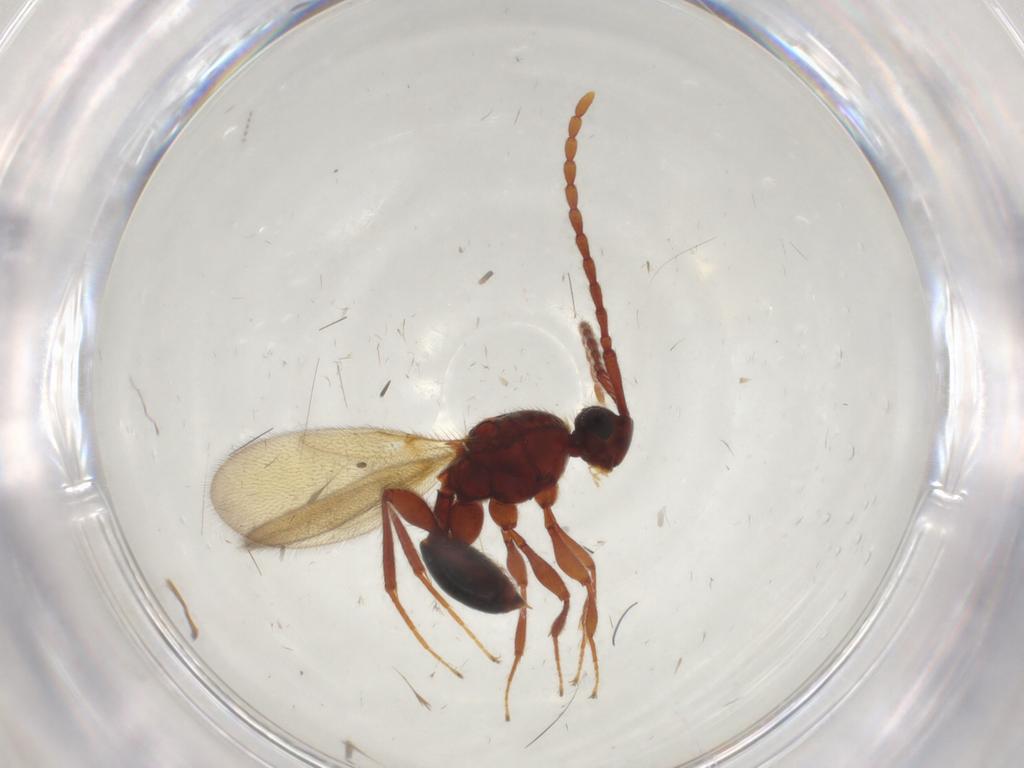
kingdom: Animalia
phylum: Arthropoda
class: Insecta
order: Hymenoptera
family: Diapriidae
